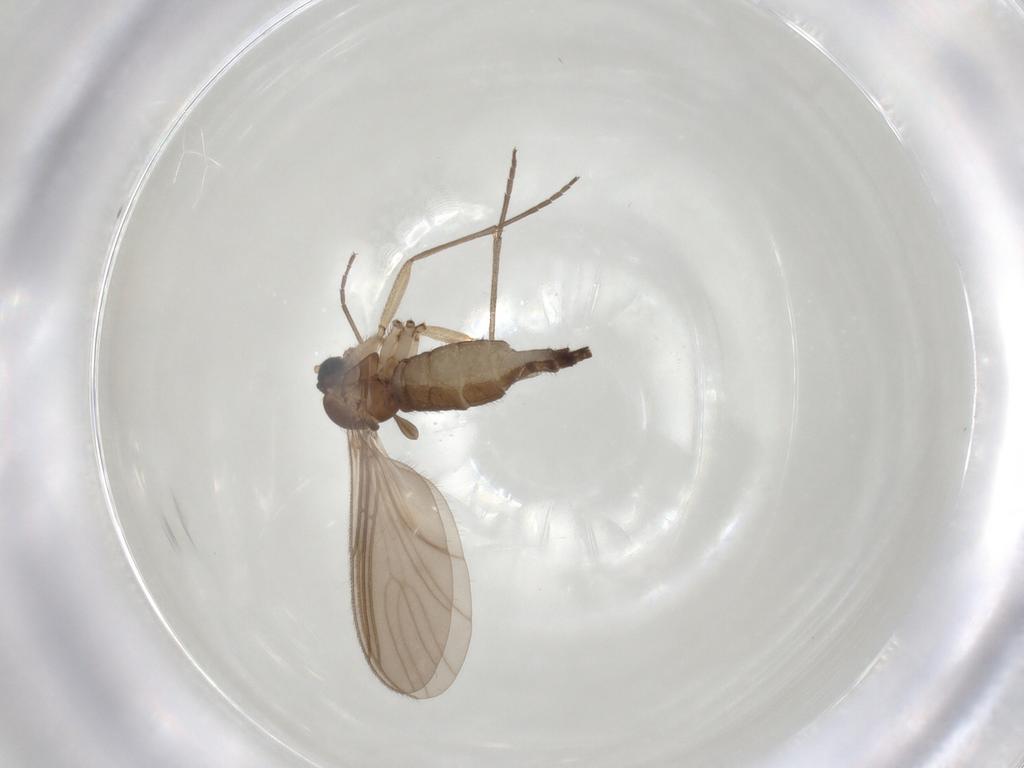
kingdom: Animalia
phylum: Arthropoda
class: Insecta
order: Diptera
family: Sciaridae
